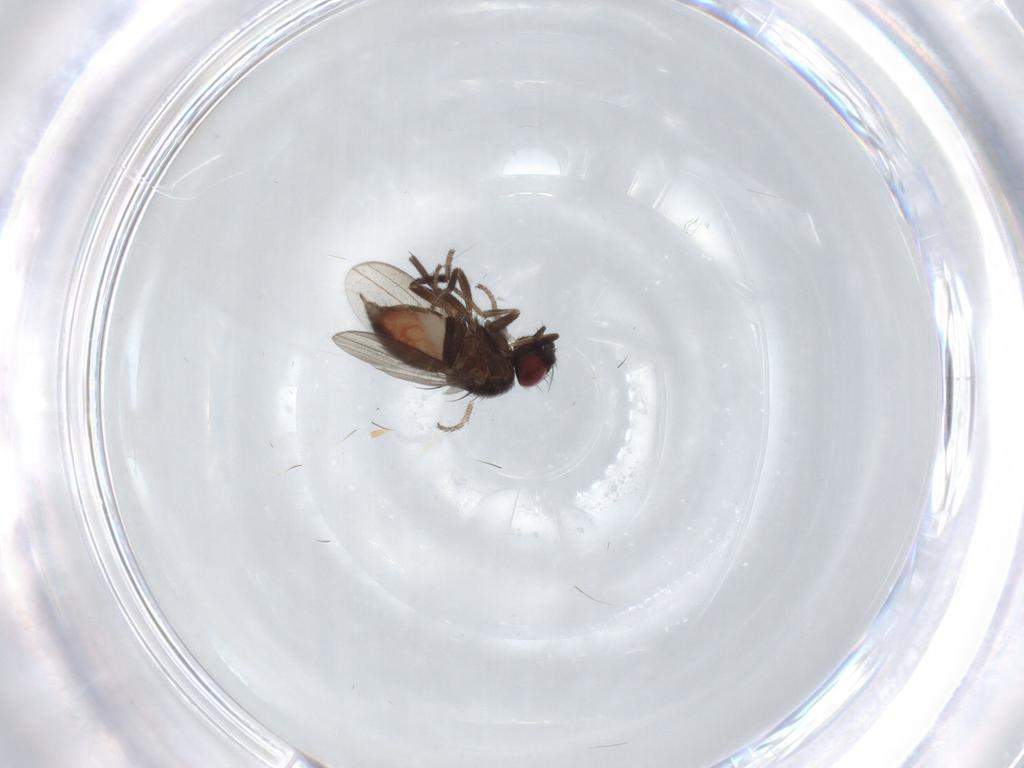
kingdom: Animalia
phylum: Arthropoda
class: Insecta
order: Diptera
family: Milichiidae
